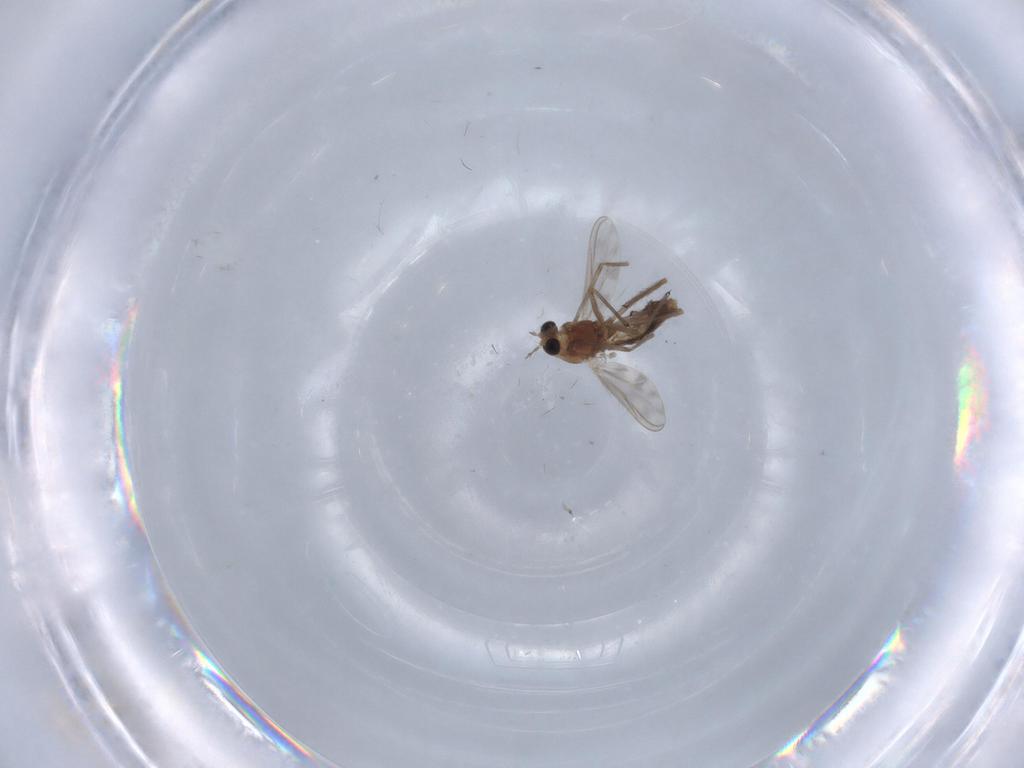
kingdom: Animalia
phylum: Arthropoda
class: Insecta
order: Diptera
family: Chironomidae
